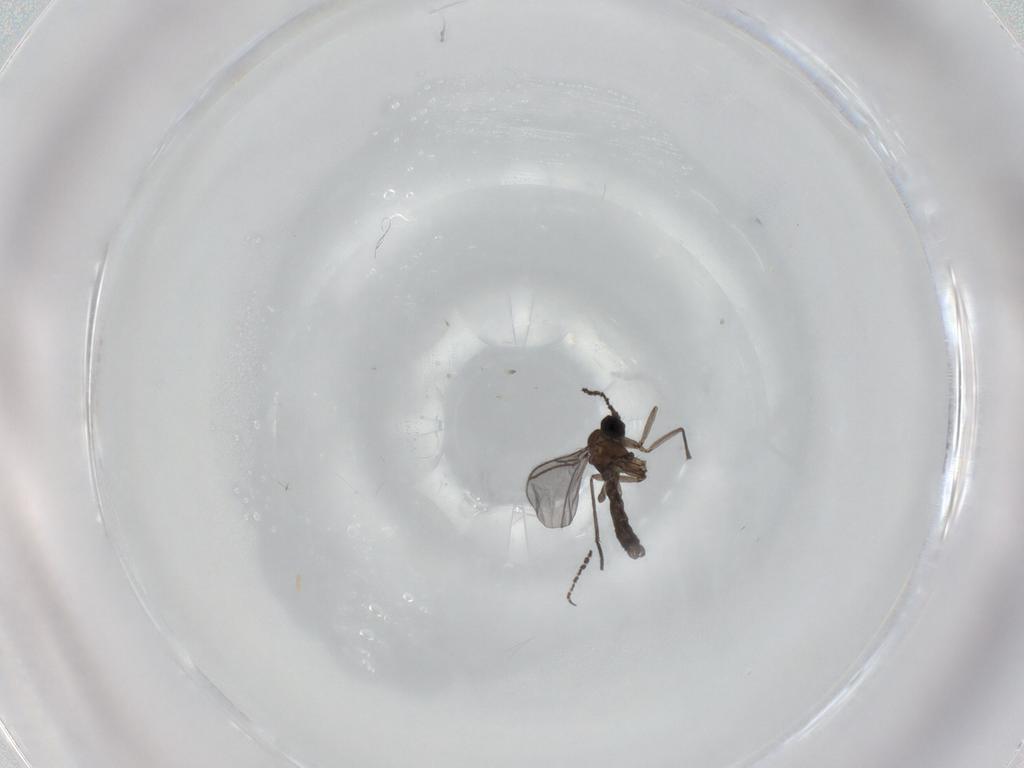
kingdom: Animalia
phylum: Arthropoda
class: Insecta
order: Diptera
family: Sciaridae
